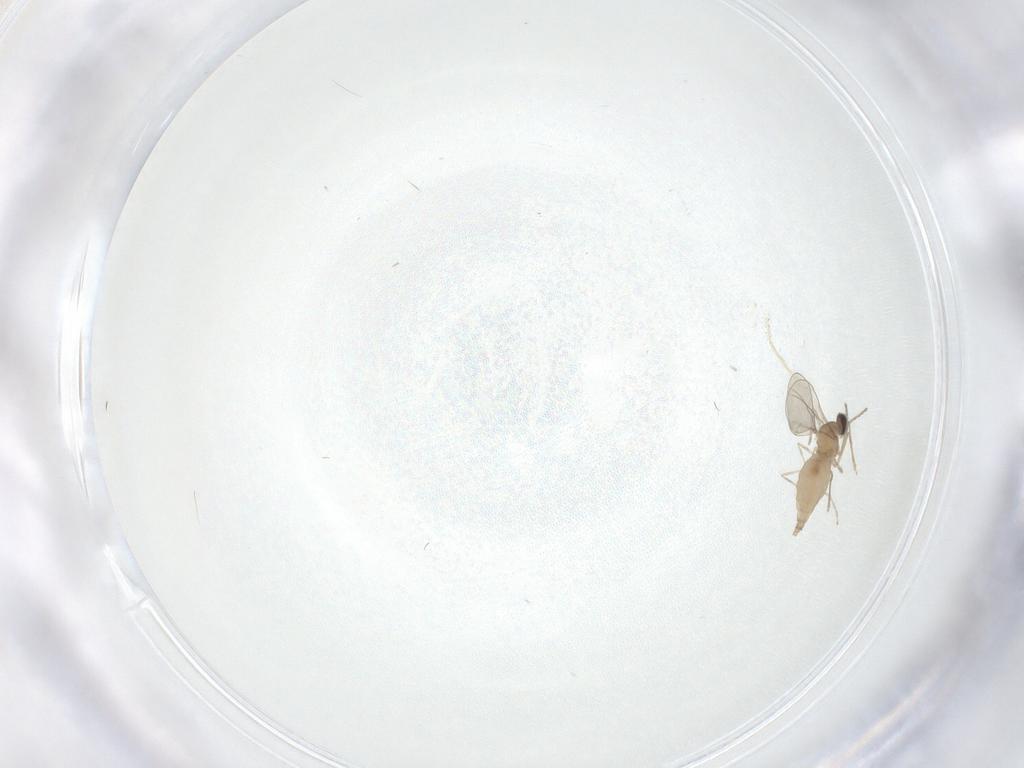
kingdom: Animalia
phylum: Arthropoda
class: Insecta
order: Diptera
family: Cecidomyiidae
